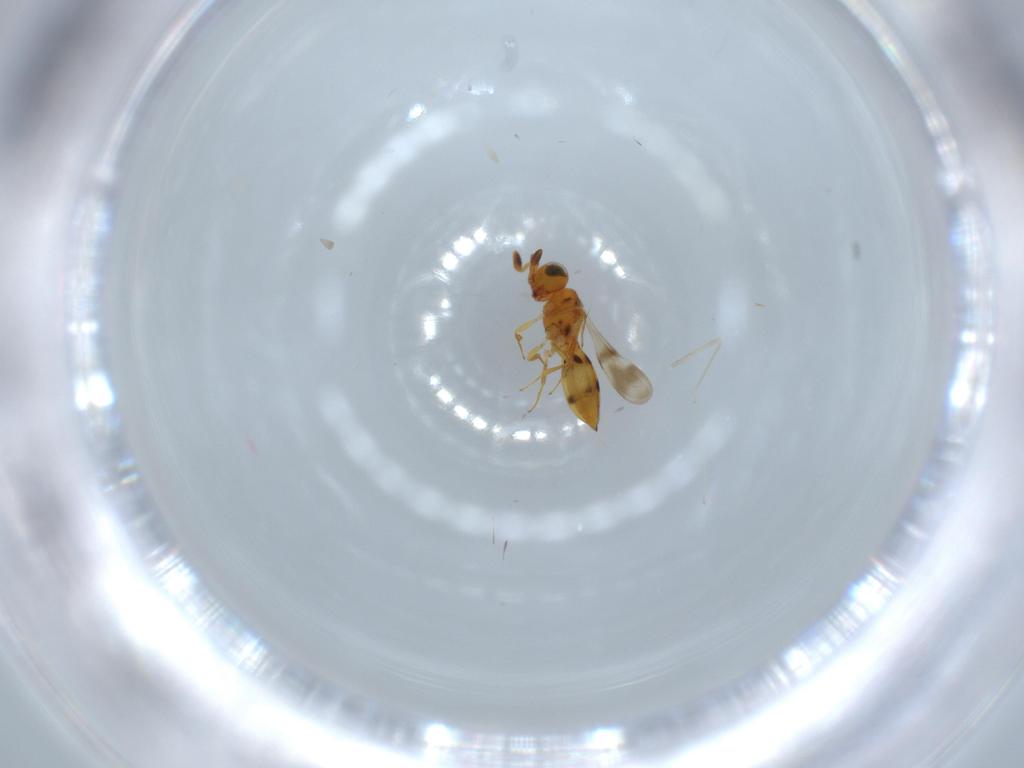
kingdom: Animalia
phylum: Arthropoda
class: Insecta
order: Hymenoptera
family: Scelionidae
